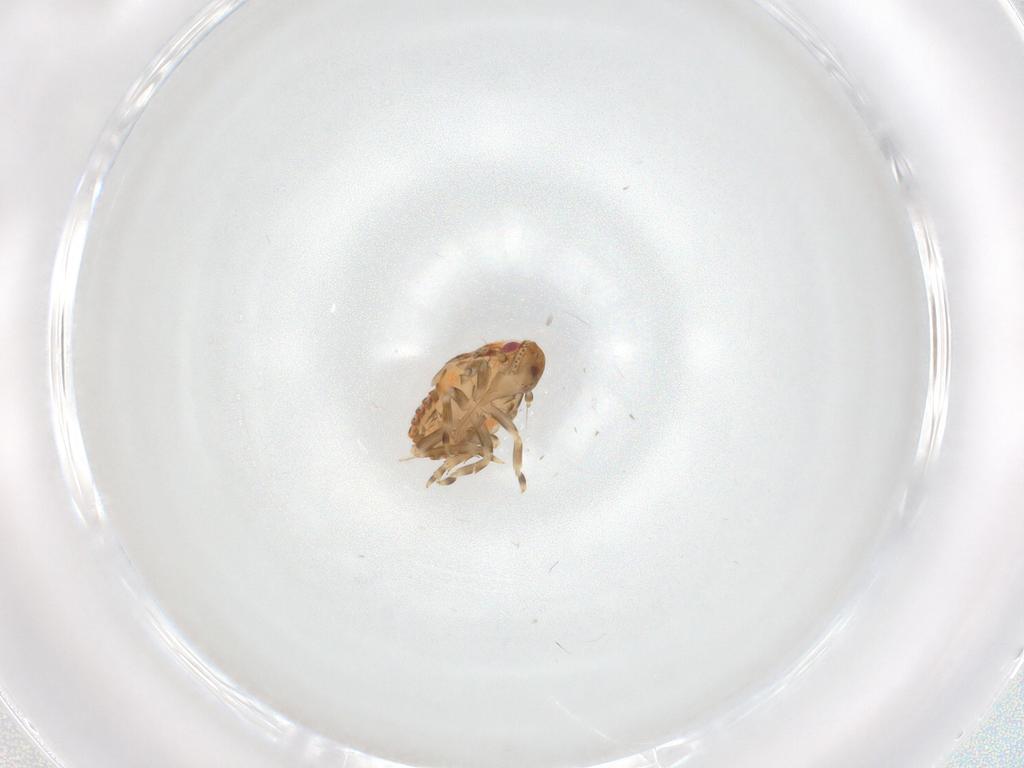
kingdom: Animalia
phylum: Arthropoda
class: Insecta
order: Hemiptera
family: Flatidae
